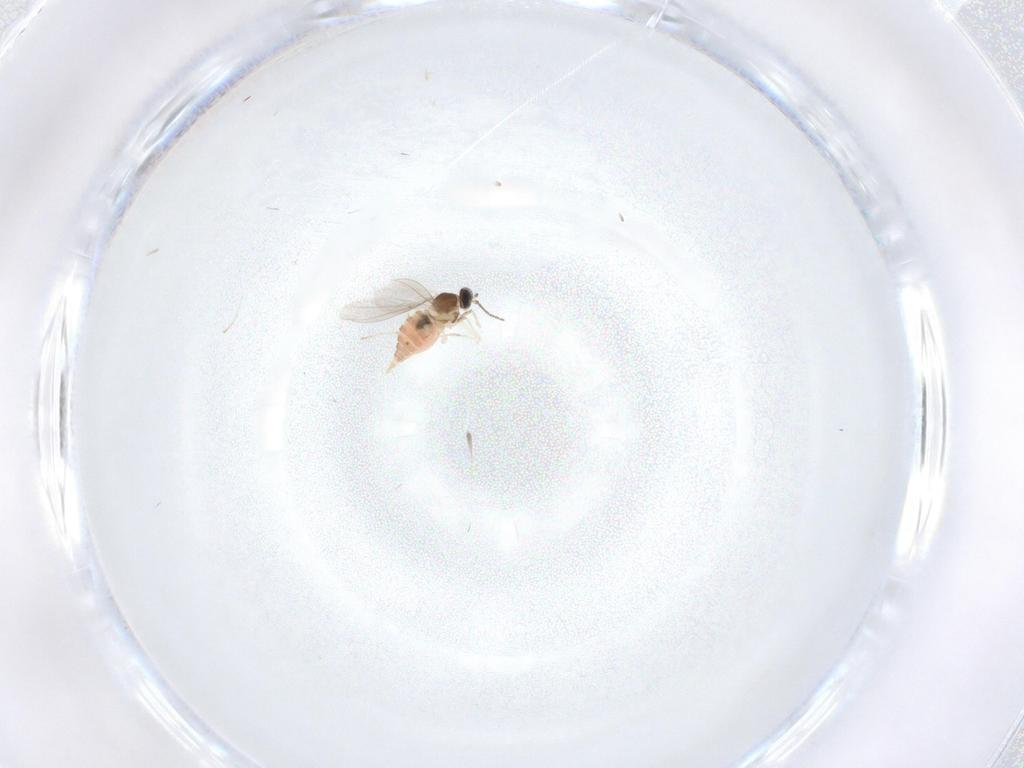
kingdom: Animalia
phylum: Arthropoda
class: Insecta
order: Diptera
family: Cecidomyiidae
